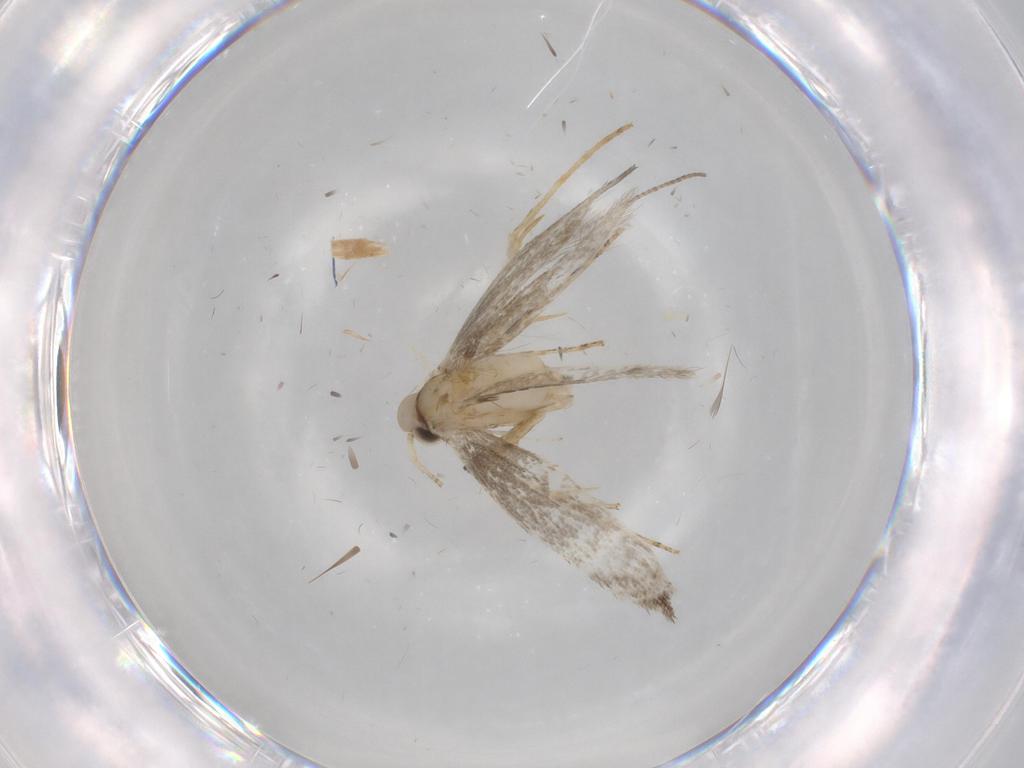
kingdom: Animalia
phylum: Arthropoda
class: Insecta
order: Lepidoptera
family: Gracillariidae
